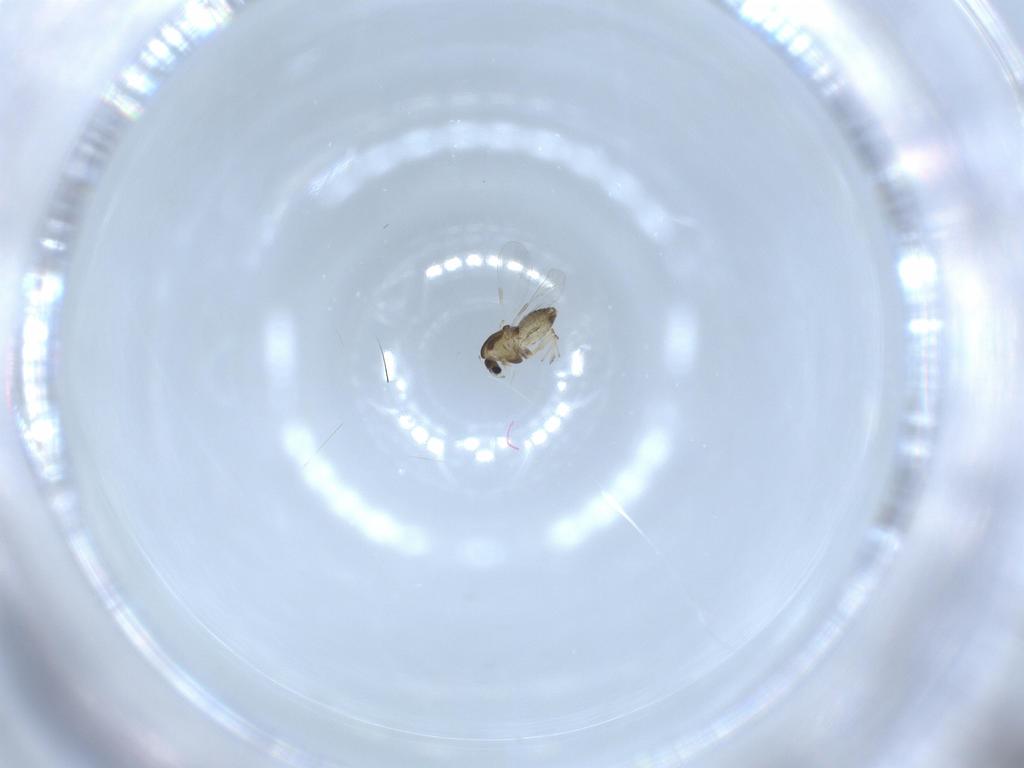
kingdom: Animalia
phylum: Arthropoda
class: Insecta
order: Diptera
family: Chironomidae
